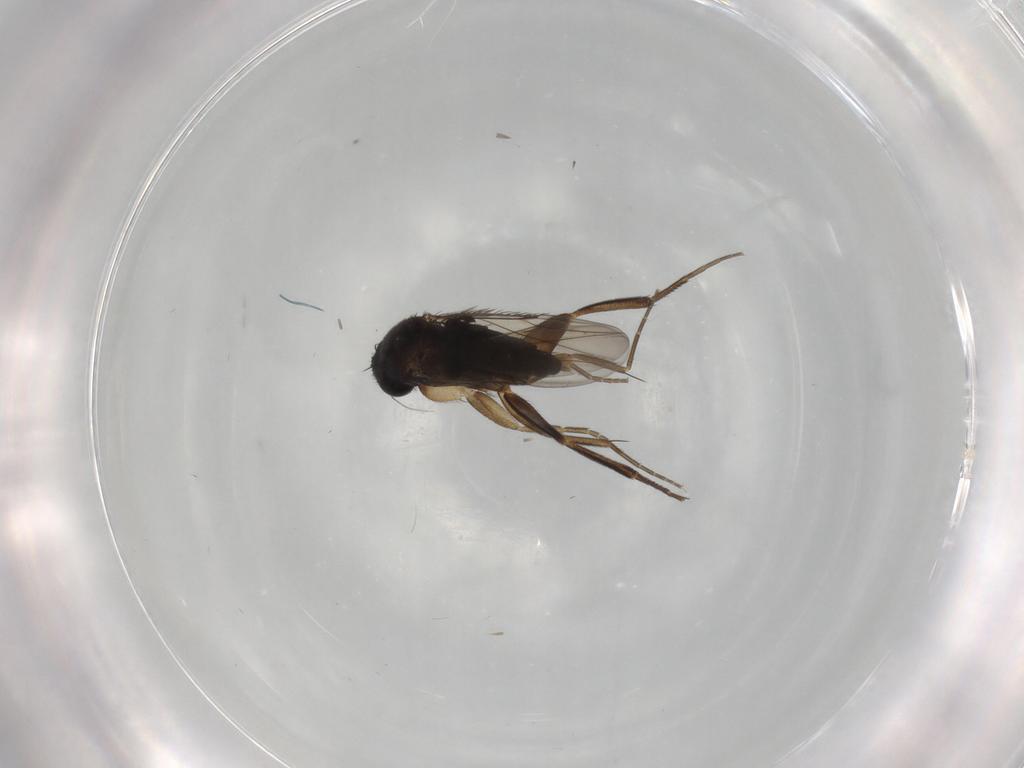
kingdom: Animalia
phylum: Arthropoda
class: Insecta
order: Diptera
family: Phoridae
